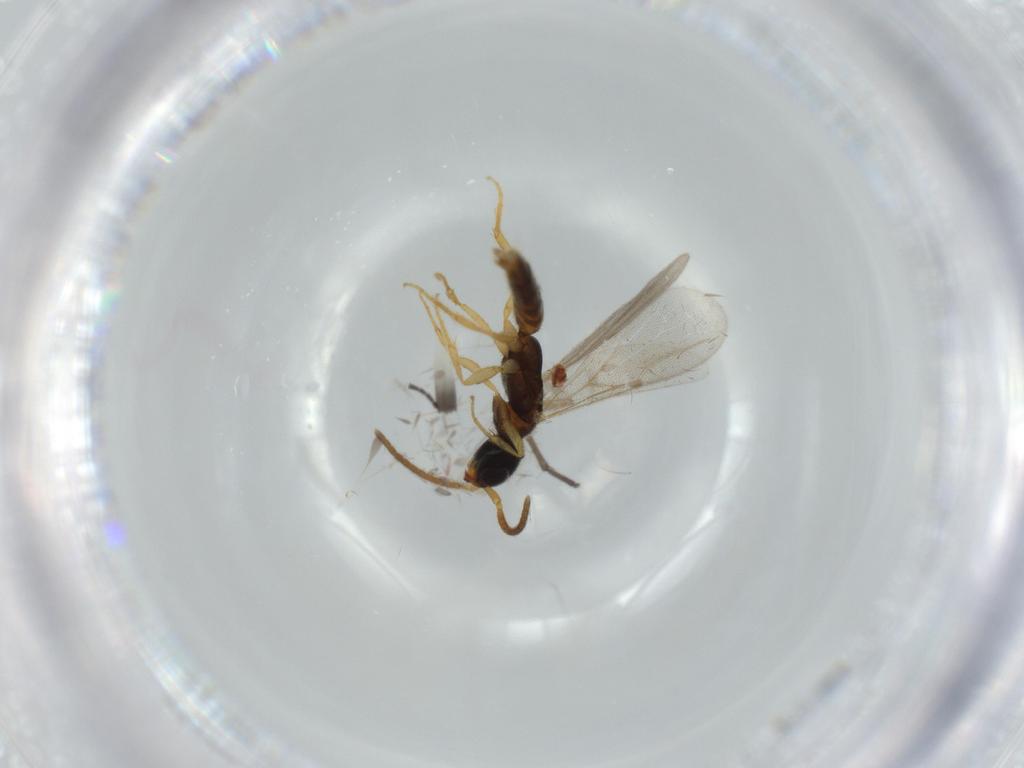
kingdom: Animalia
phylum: Arthropoda
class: Insecta
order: Hymenoptera
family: Bethylidae
